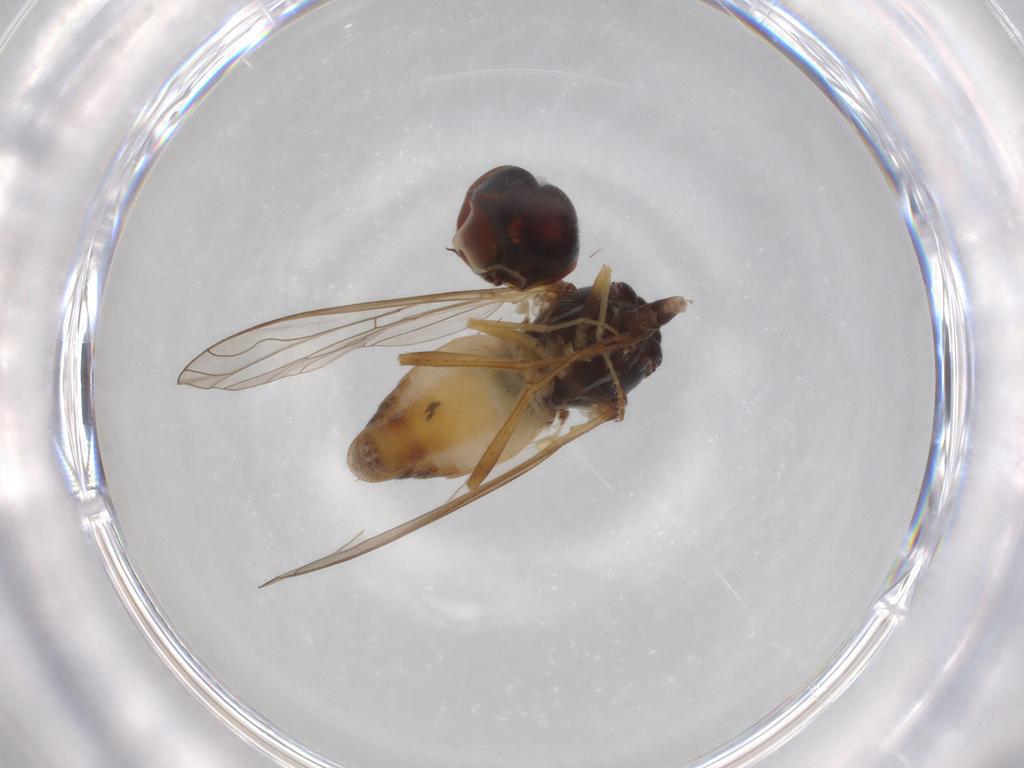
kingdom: Animalia
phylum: Arthropoda
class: Insecta
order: Diptera
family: Bombyliidae
